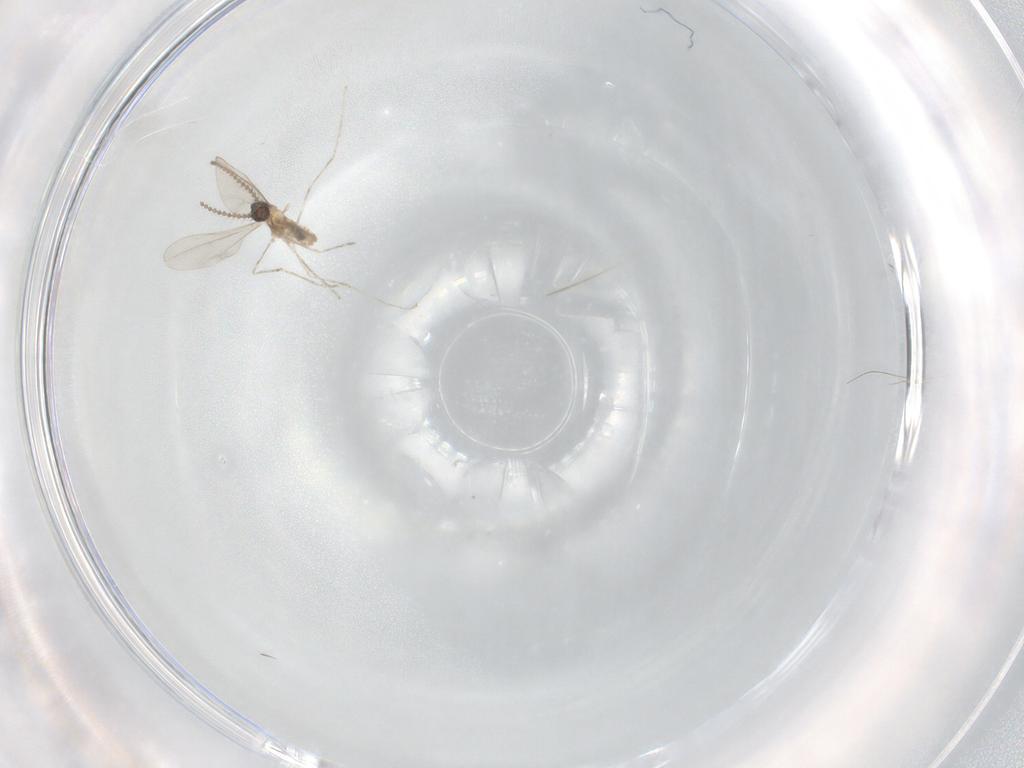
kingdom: Animalia
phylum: Arthropoda
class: Insecta
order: Diptera
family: Cecidomyiidae
